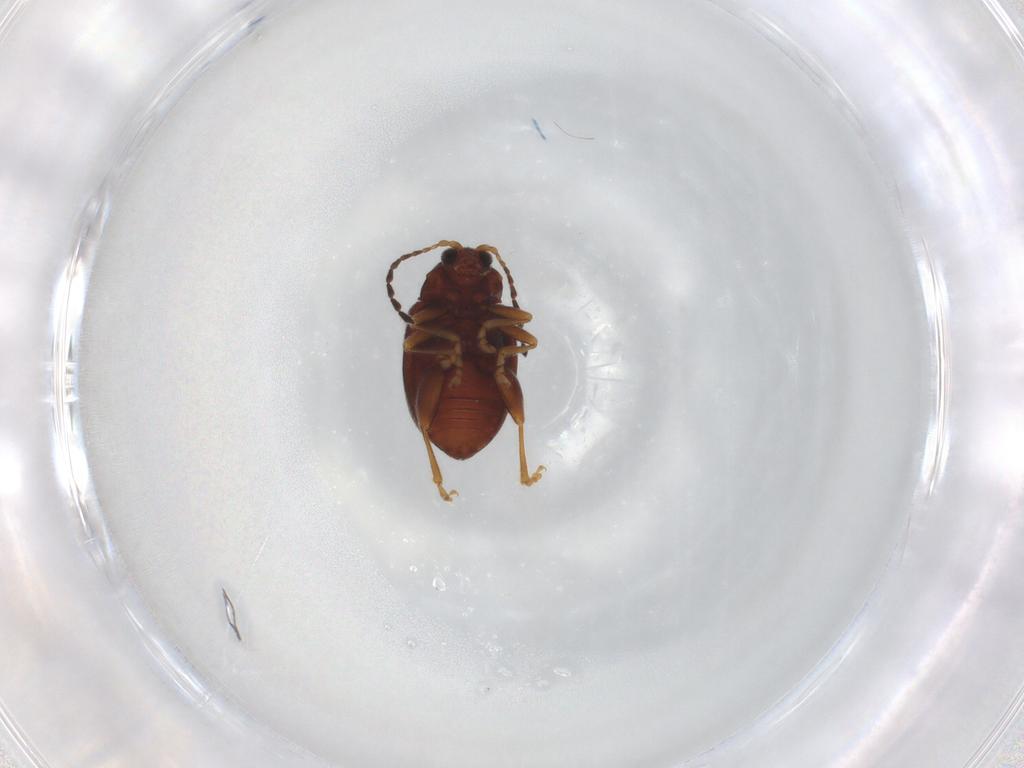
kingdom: Animalia
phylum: Arthropoda
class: Insecta
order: Coleoptera
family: Chrysomelidae
